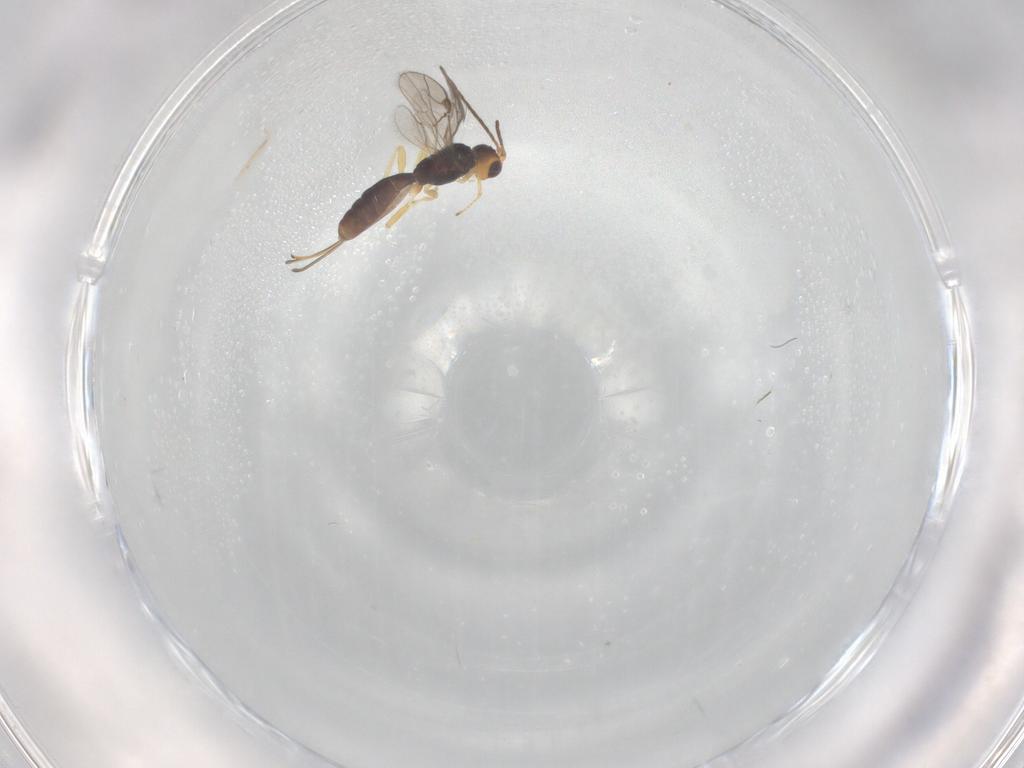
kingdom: Animalia
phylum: Arthropoda
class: Insecta
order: Hymenoptera
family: Braconidae
